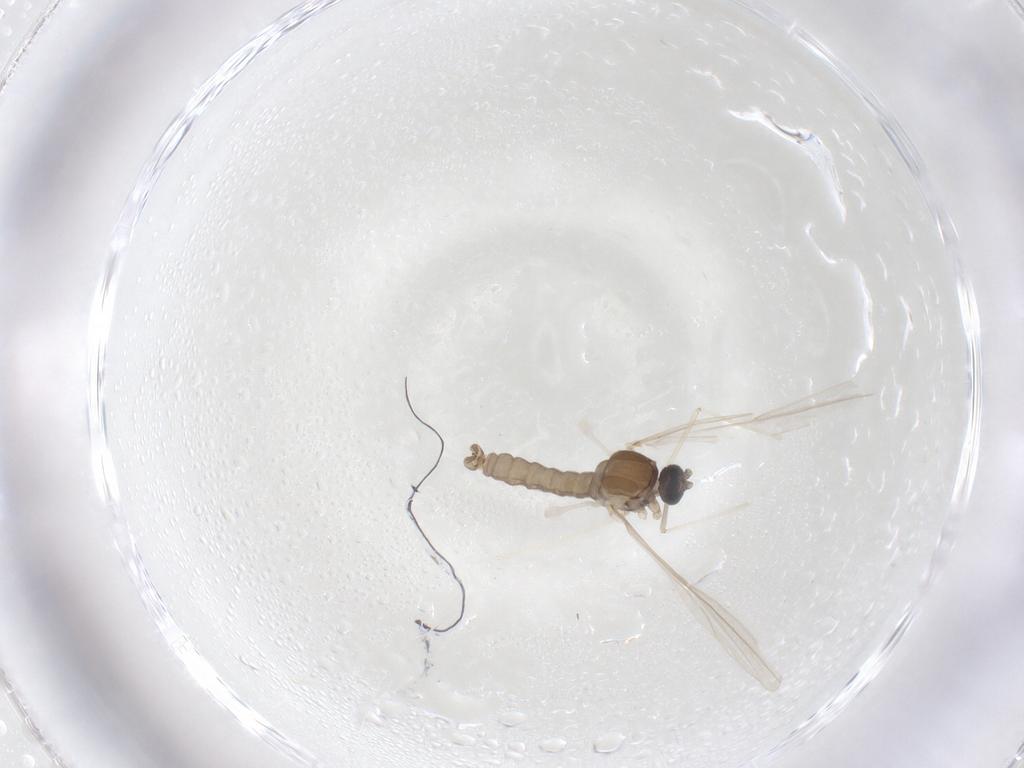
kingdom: Animalia
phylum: Arthropoda
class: Insecta
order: Diptera
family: Cecidomyiidae
